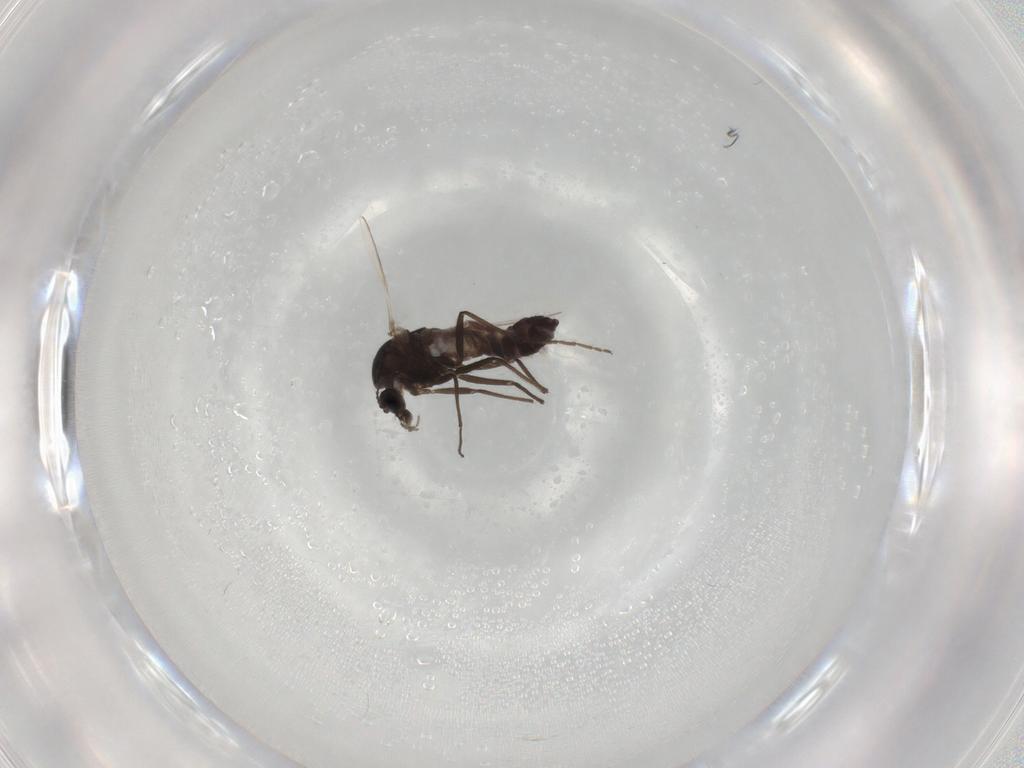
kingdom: Animalia
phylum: Arthropoda
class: Insecta
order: Diptera
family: Chironomidae
